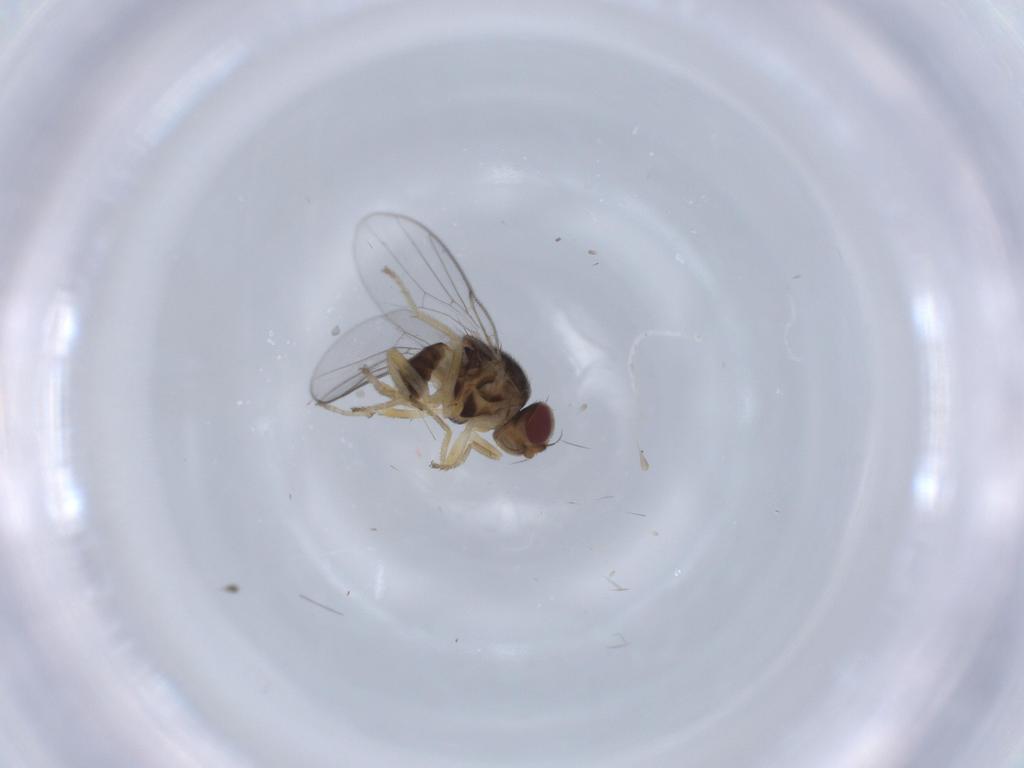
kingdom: Animalia
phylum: Arthropoda
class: Insecta
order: Diptera
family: Chloropidae
